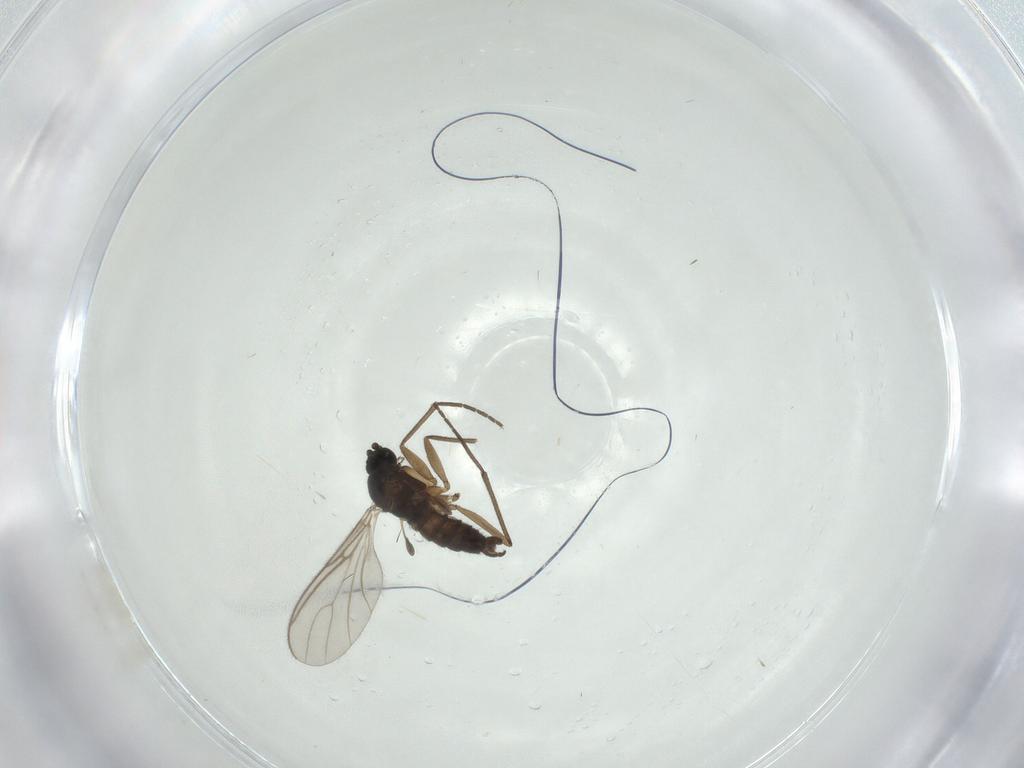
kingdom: Animalia
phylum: Arthropoda
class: Insecta
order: Diptera
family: Sciaridae
